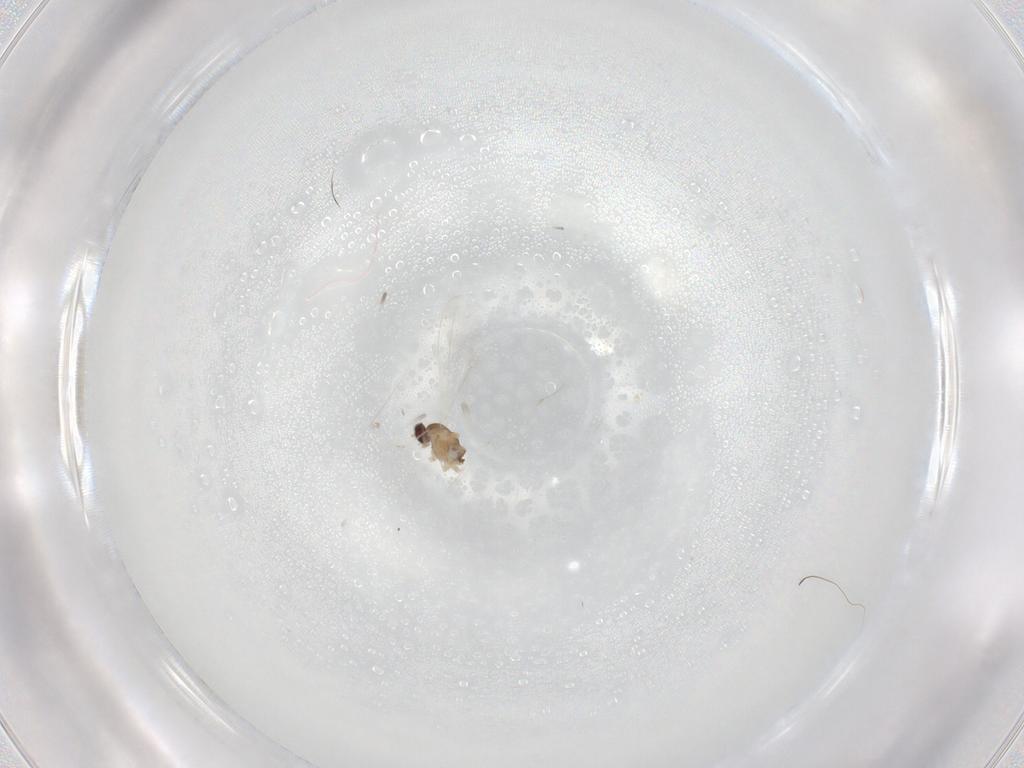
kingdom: Animalia
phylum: Arthropoda
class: Insecta
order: Diptera
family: Cecidomyiidae
